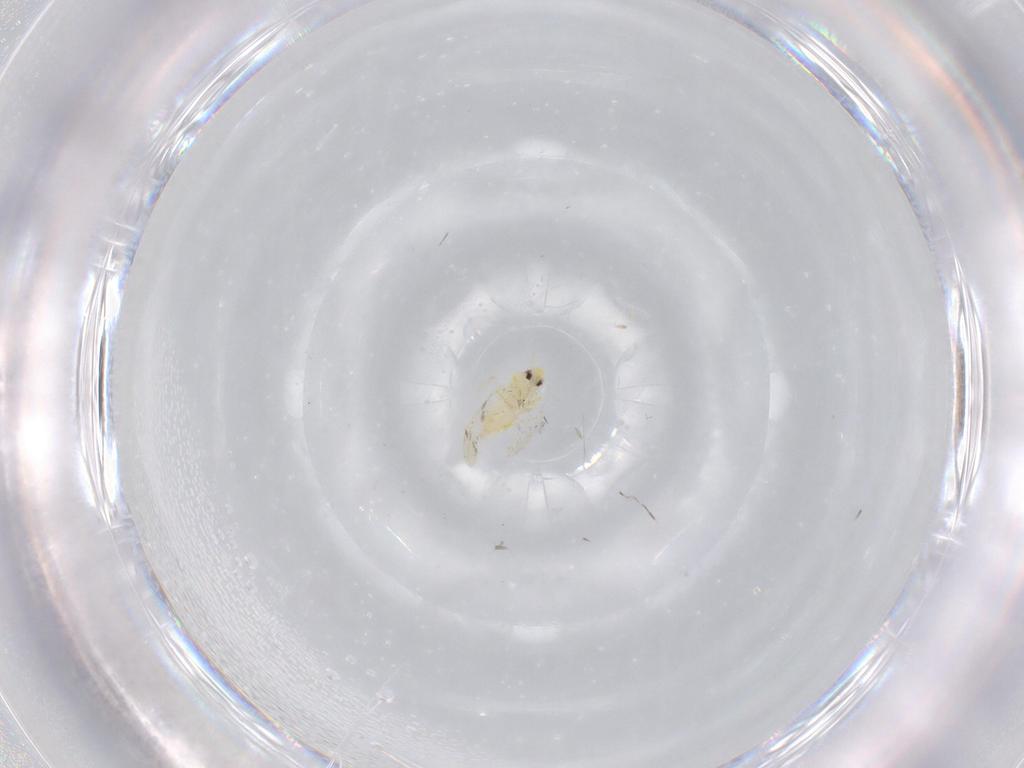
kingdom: Animalia
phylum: Arthropoda
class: Insecta
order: Hemiptera
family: Aleyrodidae
